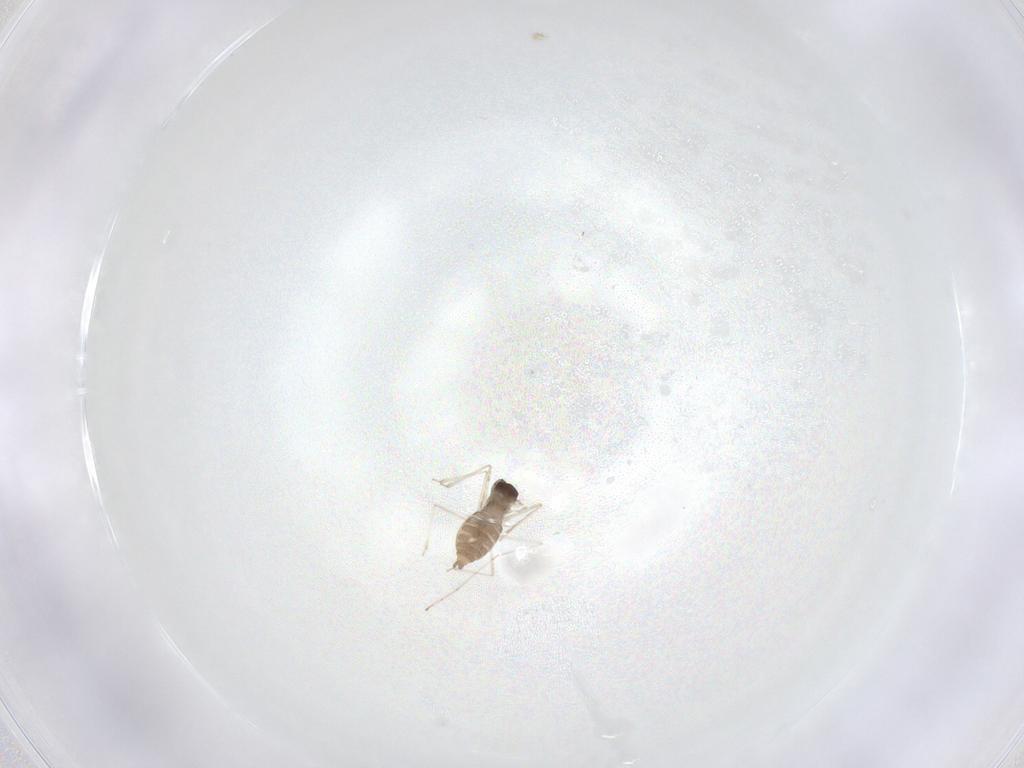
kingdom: Animalia
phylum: Arthropoda
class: Insecta
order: Diptera
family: Cecidomyiidae
